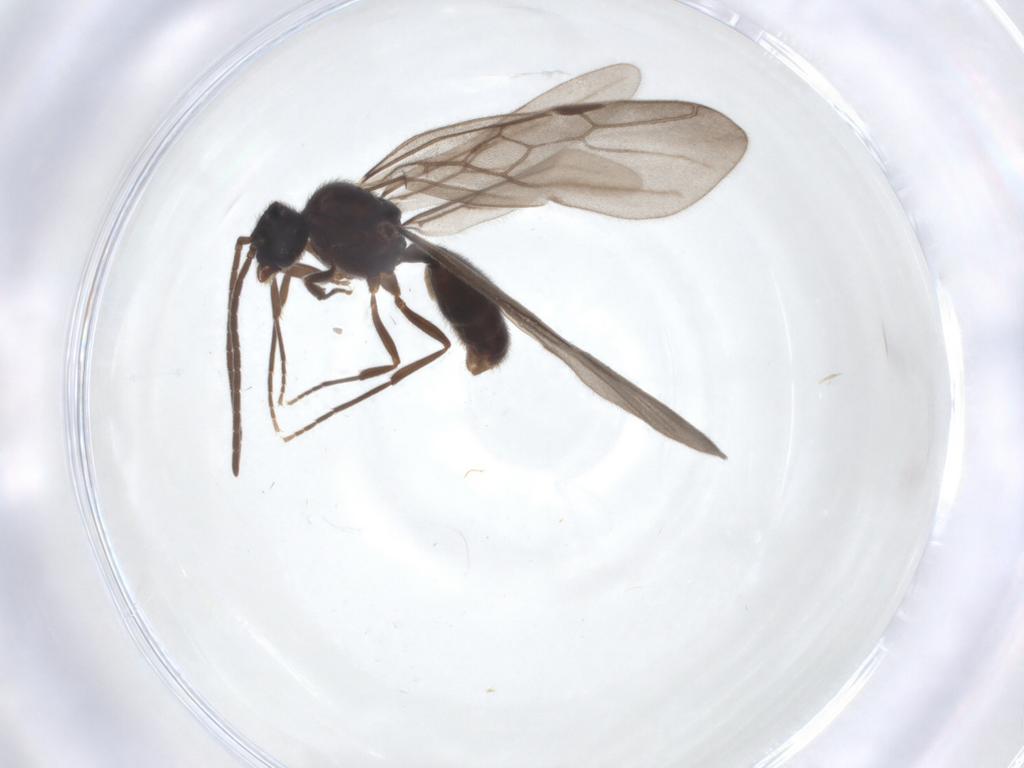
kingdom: Animalia
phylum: Arthropoda
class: Insecta
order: Hymenoptera
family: Formicidae
